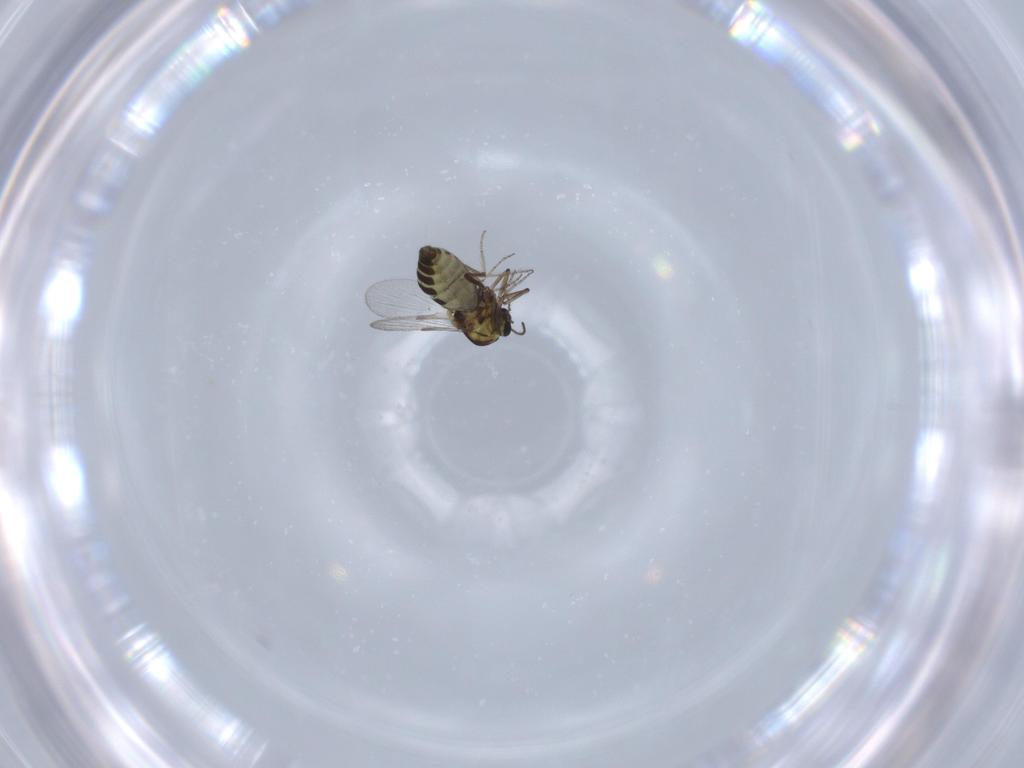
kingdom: Animalia
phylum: Arthropoda
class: Insecta
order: Diptera
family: Ceratopogonidae
